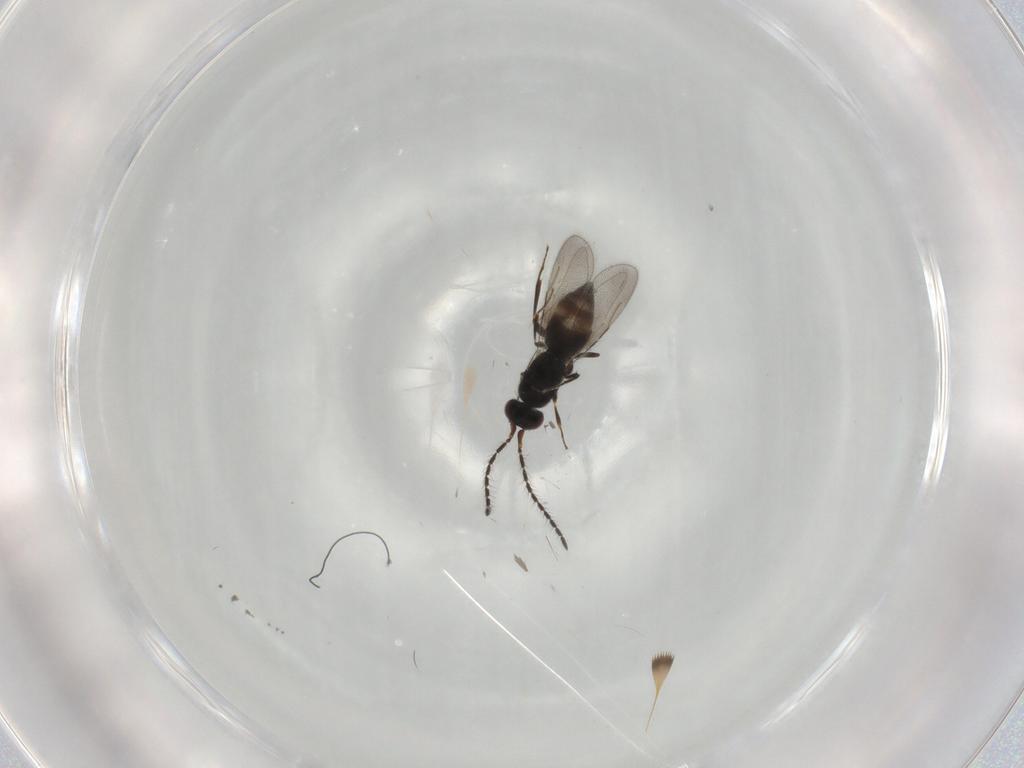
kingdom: Animalia
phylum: Arthropoda
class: Insecta
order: Hymenoptera
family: Ceraphronidae
